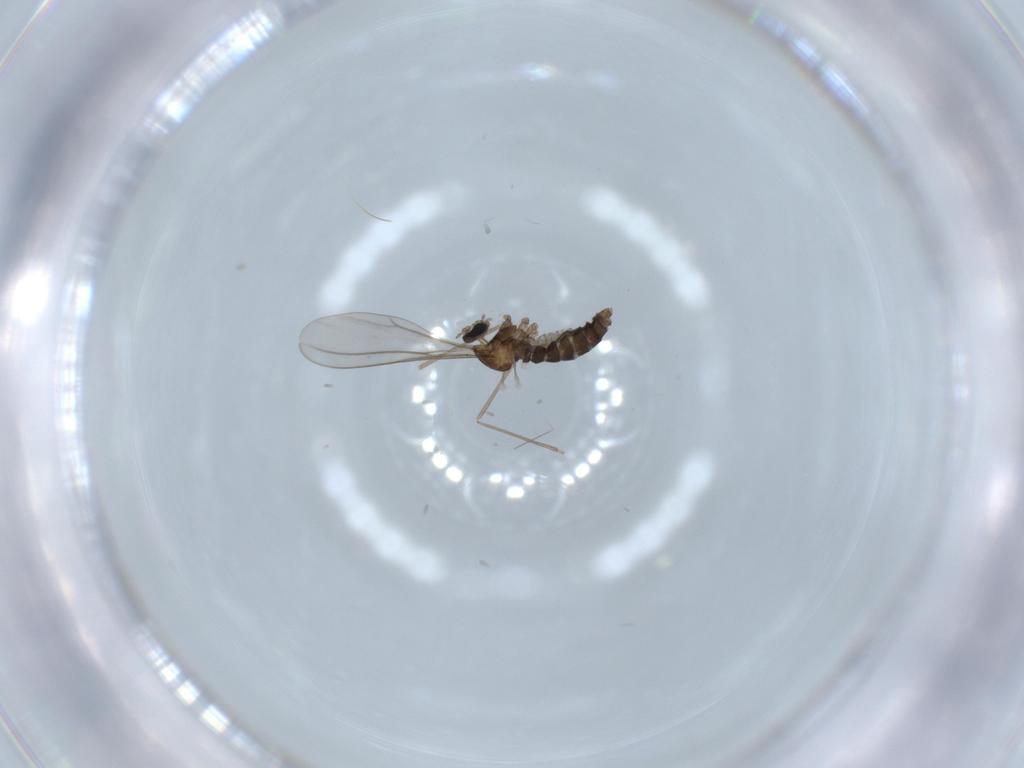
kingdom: Animalia
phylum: Arthropoda
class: Insecta
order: Diptera
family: Cecidomyiidae
